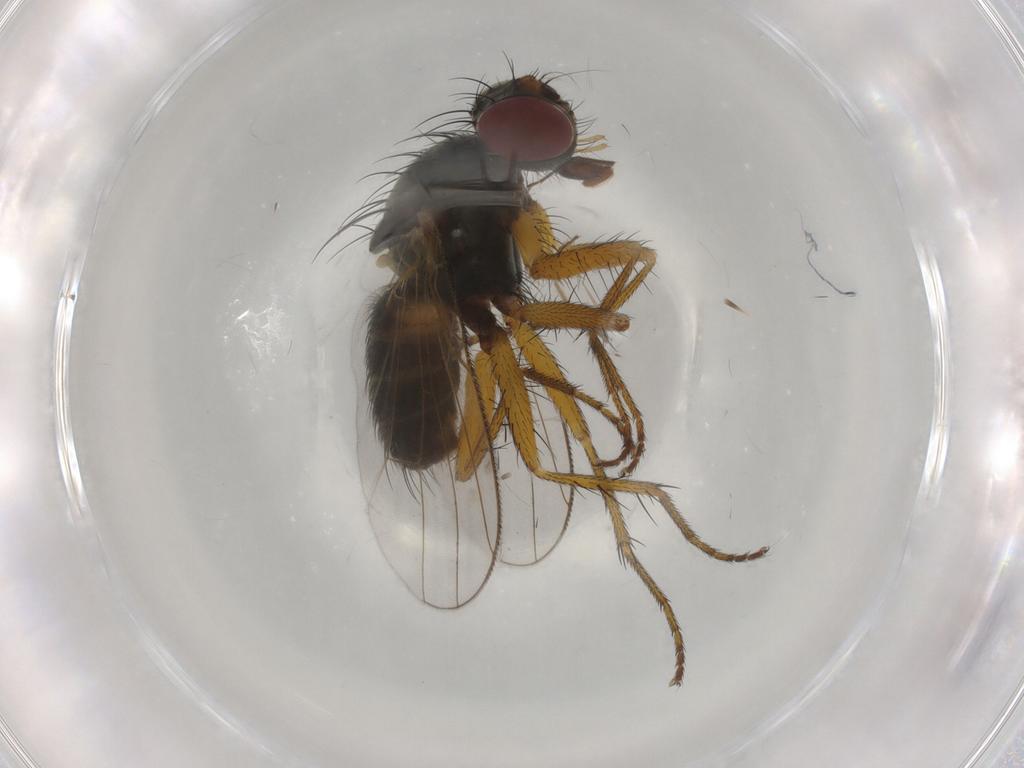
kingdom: Animalia
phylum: Arthropoda
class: Insecta
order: Diptera
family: Muscidae
